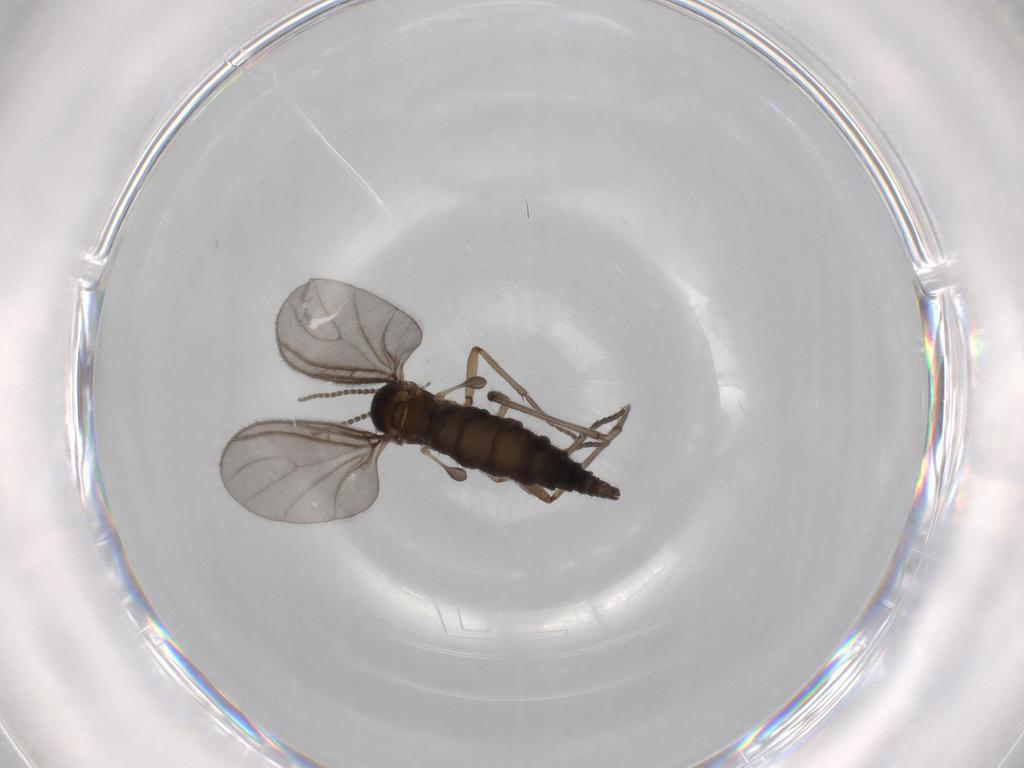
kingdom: Animalia
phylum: Arthropoda
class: Insecta
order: Diptera
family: Sciaridae
